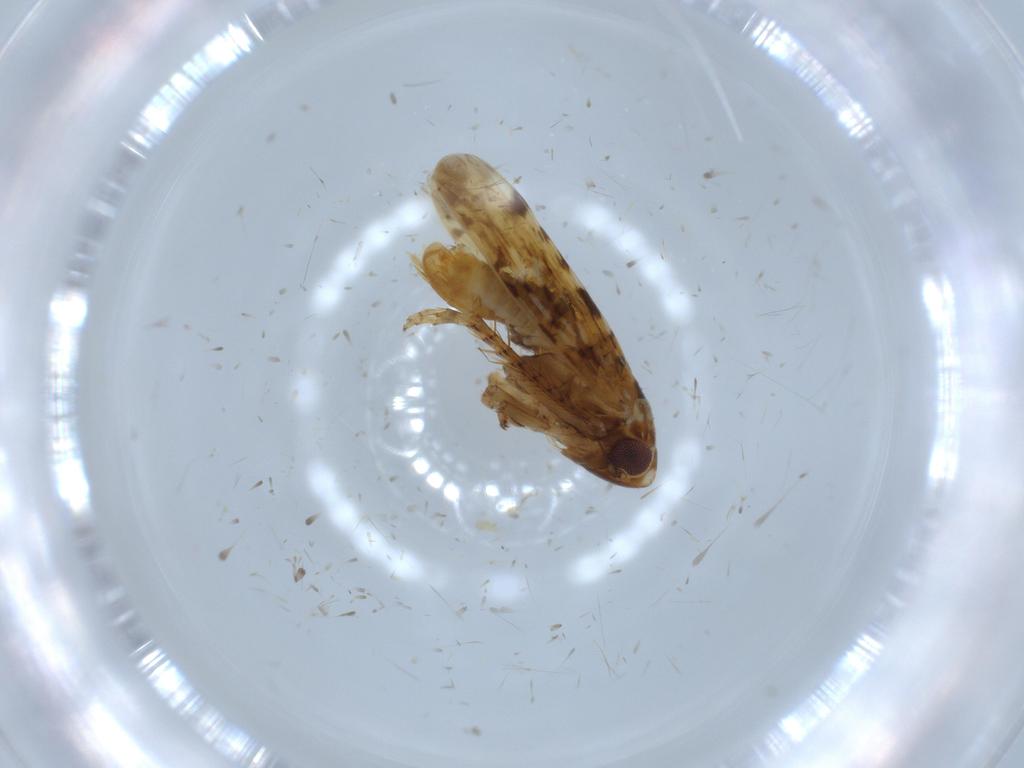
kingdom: Animalia
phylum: Arthropoda
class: Insecta
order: Hemiptera
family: Cicadellidae
